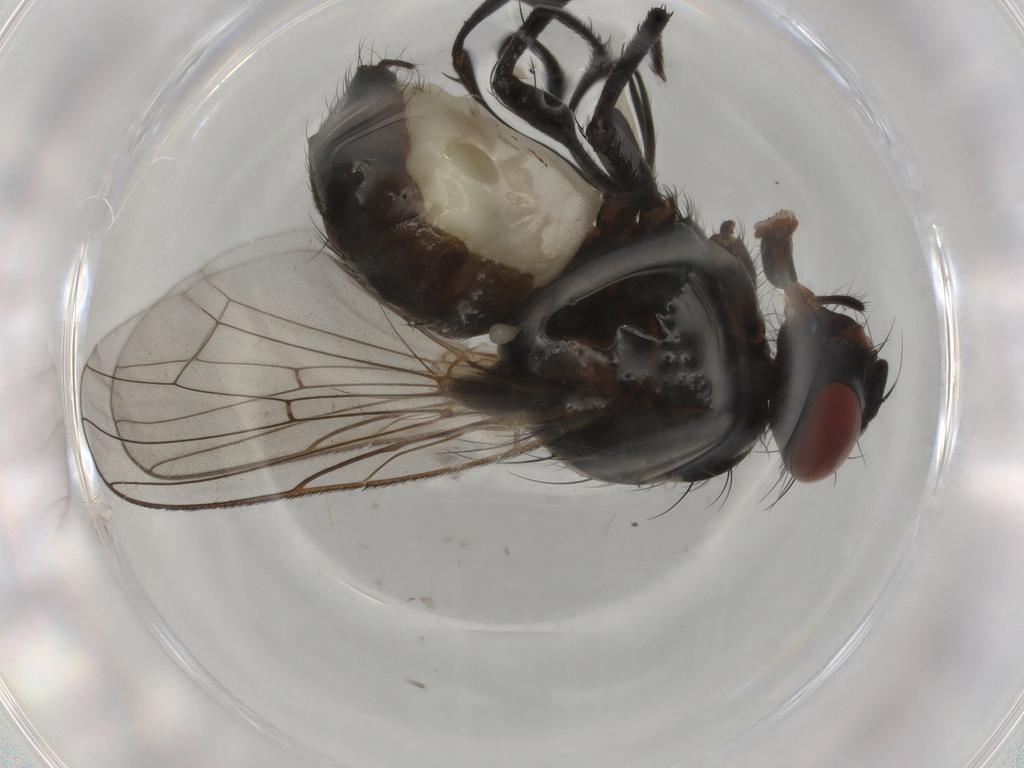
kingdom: Animalia
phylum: Arthropoda
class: Insecta
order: Diptera
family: Anthomyiidae
